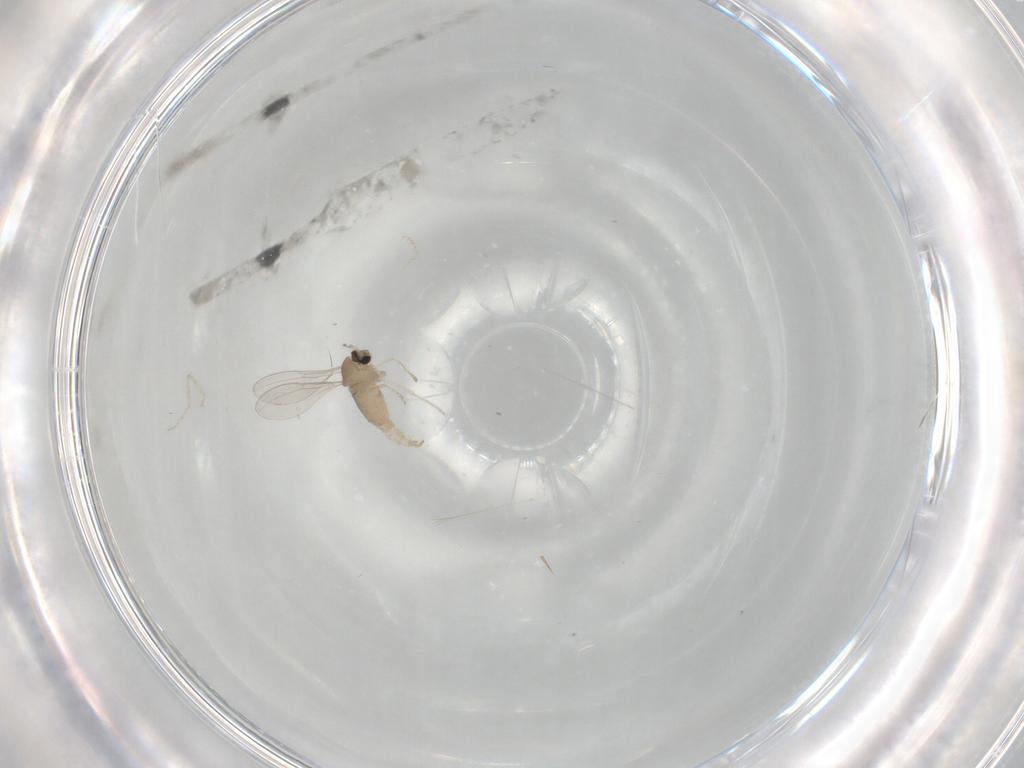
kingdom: Animalia
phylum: Arthropoda
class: Insecta
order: Diptera
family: Cecidomyiidae
